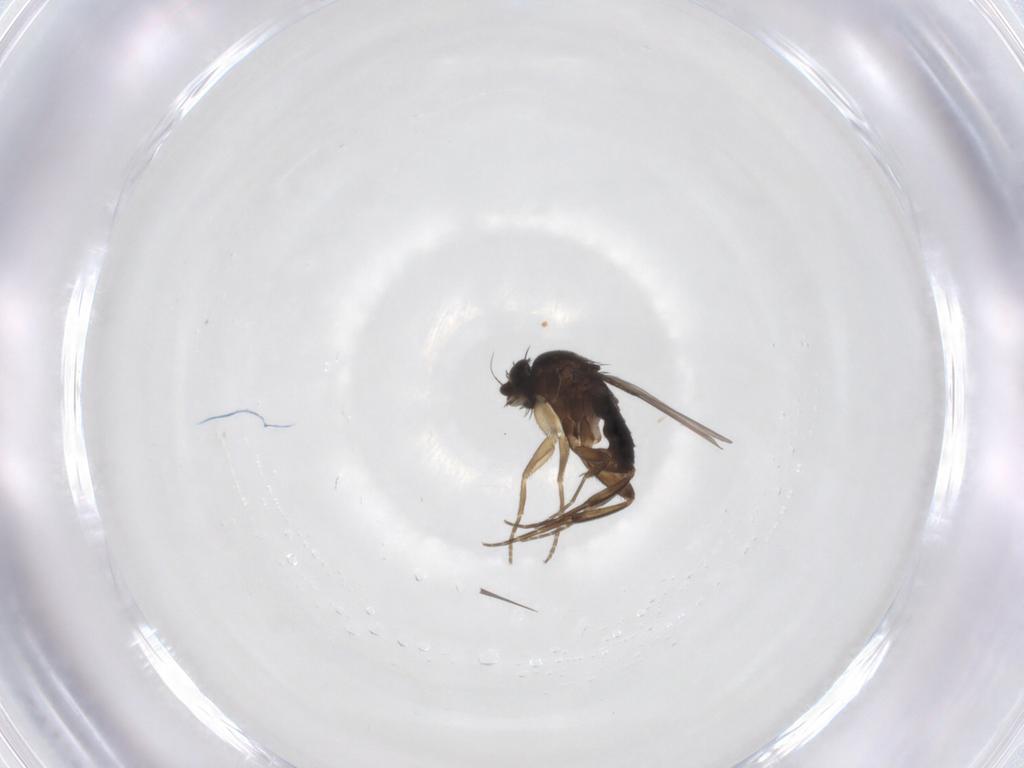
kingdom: Animalia
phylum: Arthropoda
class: Insecta
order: Diptera
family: Phoridae
